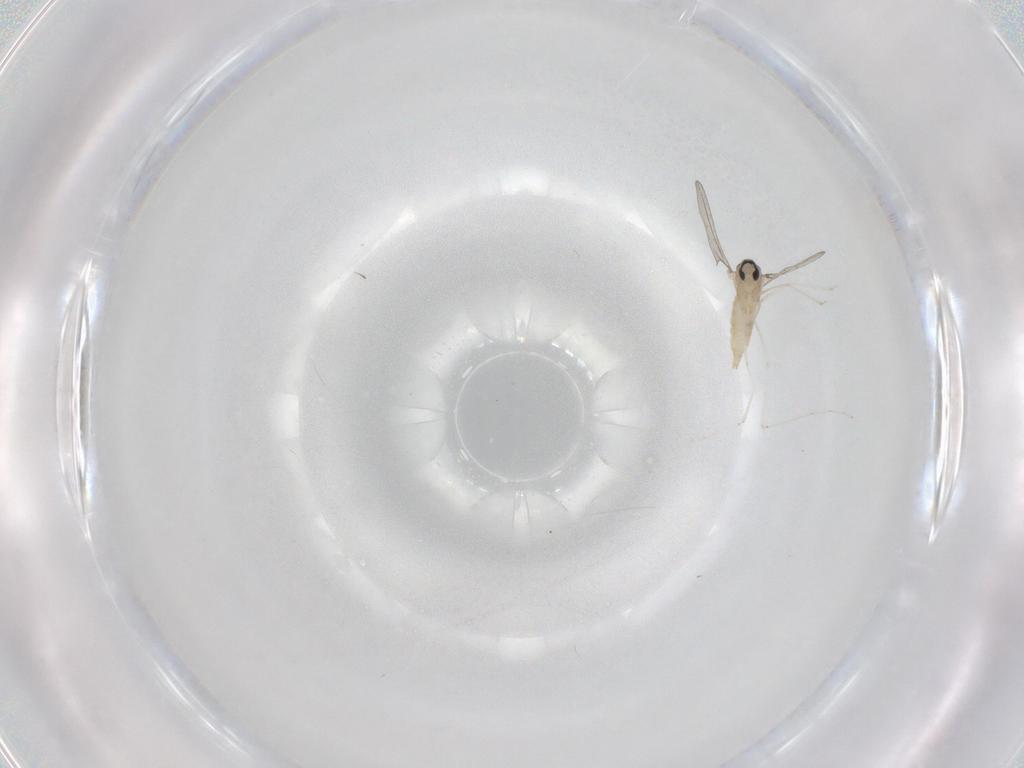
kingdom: Animalia
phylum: Arthropoda
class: Insecta
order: Diptera
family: Cecidomyiidae
